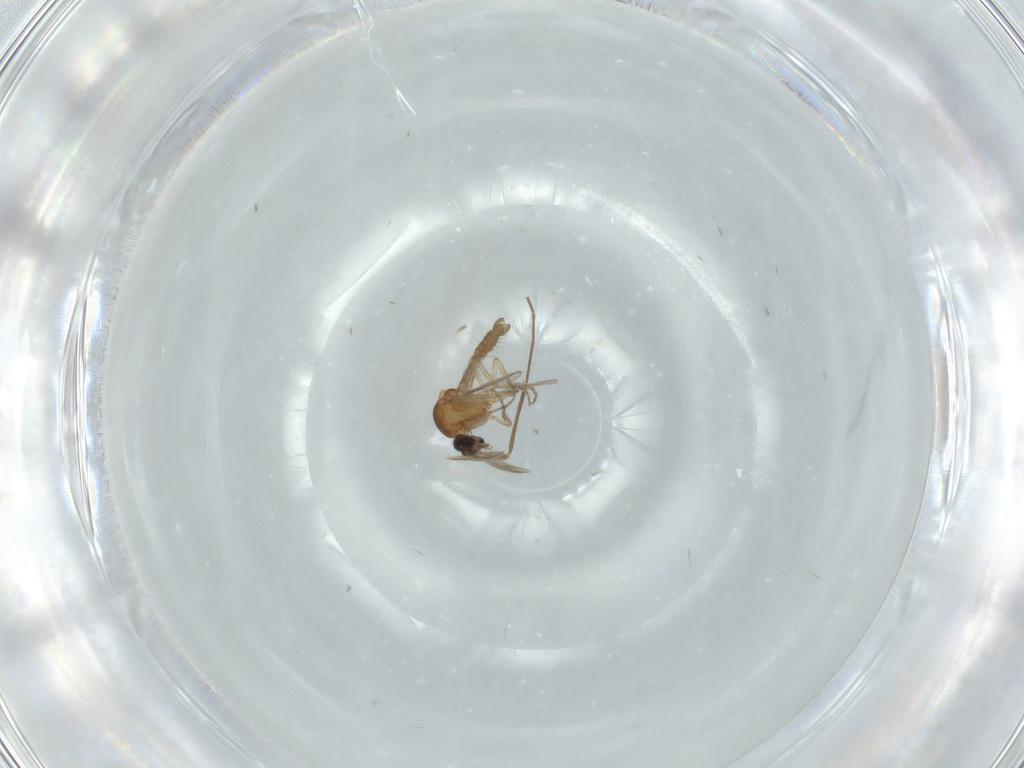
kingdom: Animalia
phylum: Arthropoda
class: Insecta
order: Diptera
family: Chironomidae
